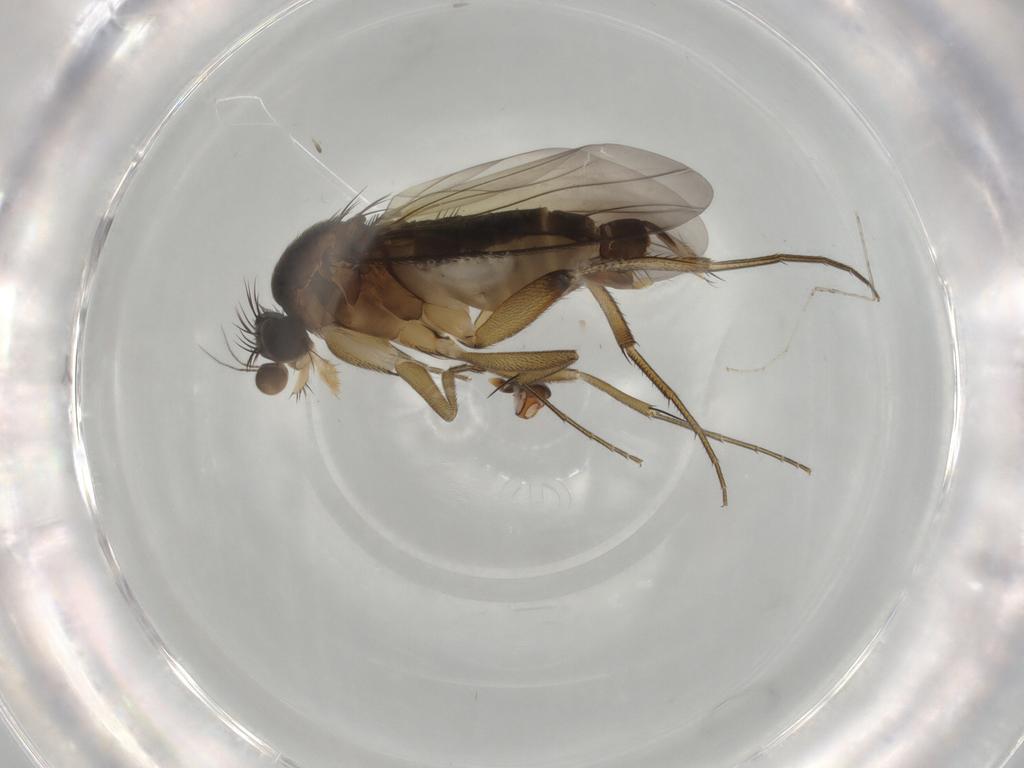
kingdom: Animalia
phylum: Arthropoda
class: Insecta
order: Diptera
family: Phoridae
